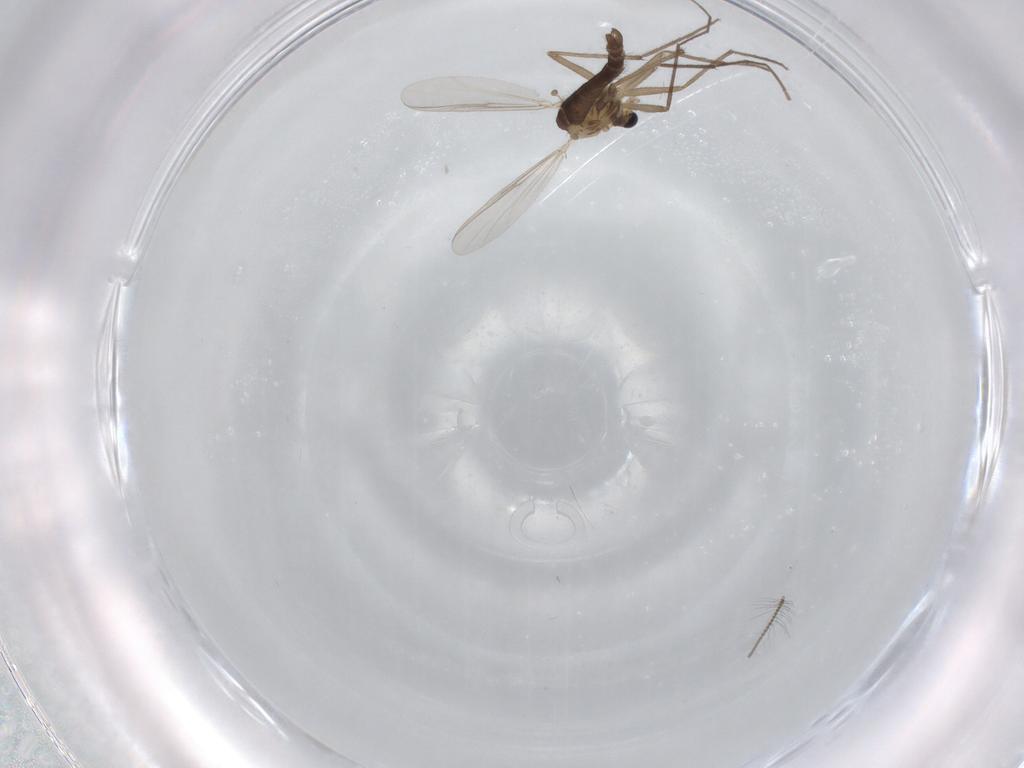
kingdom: Animalia
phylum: Arthropoda
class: Insecta
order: Diptera
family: Chironomidae
